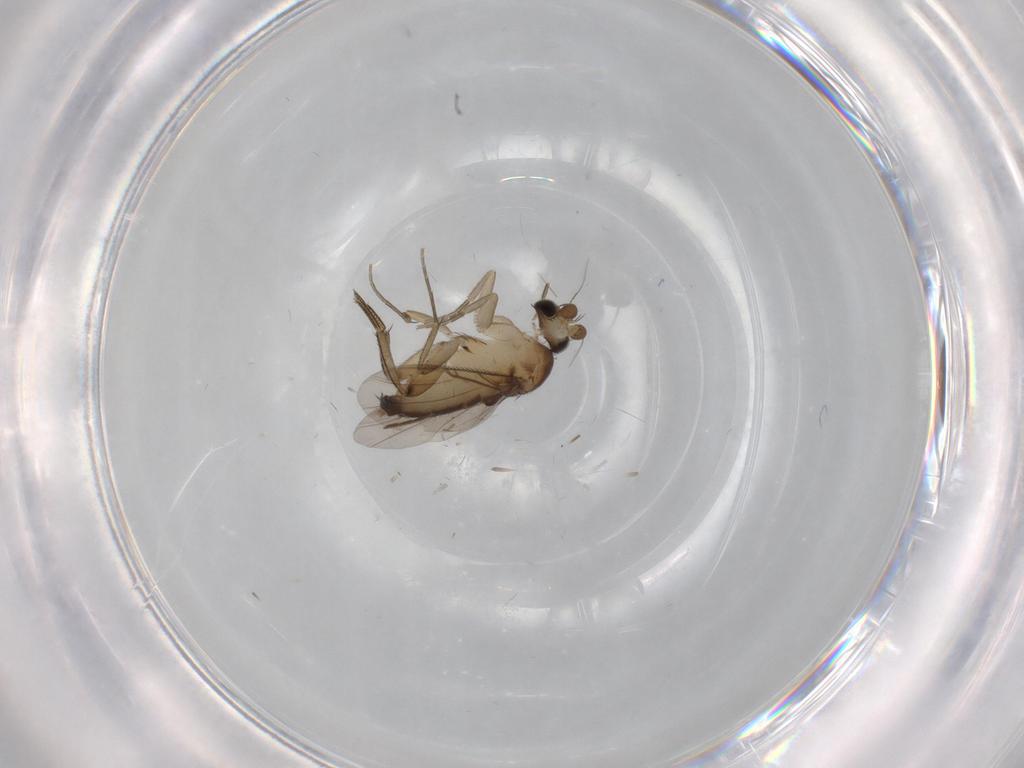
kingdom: Animalia
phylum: Arthropoda
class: Insecta
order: Diptera
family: Phoridae
